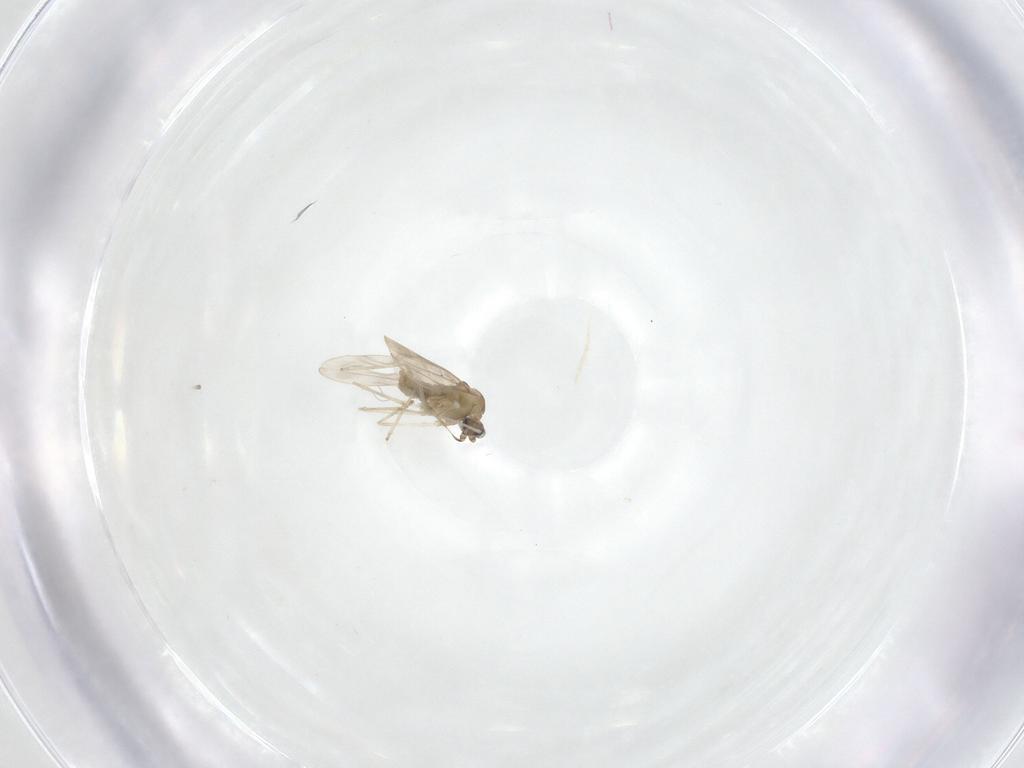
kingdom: Animalia
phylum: Arthropoda
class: Insecta
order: Diptera
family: Cecidomyiidae
